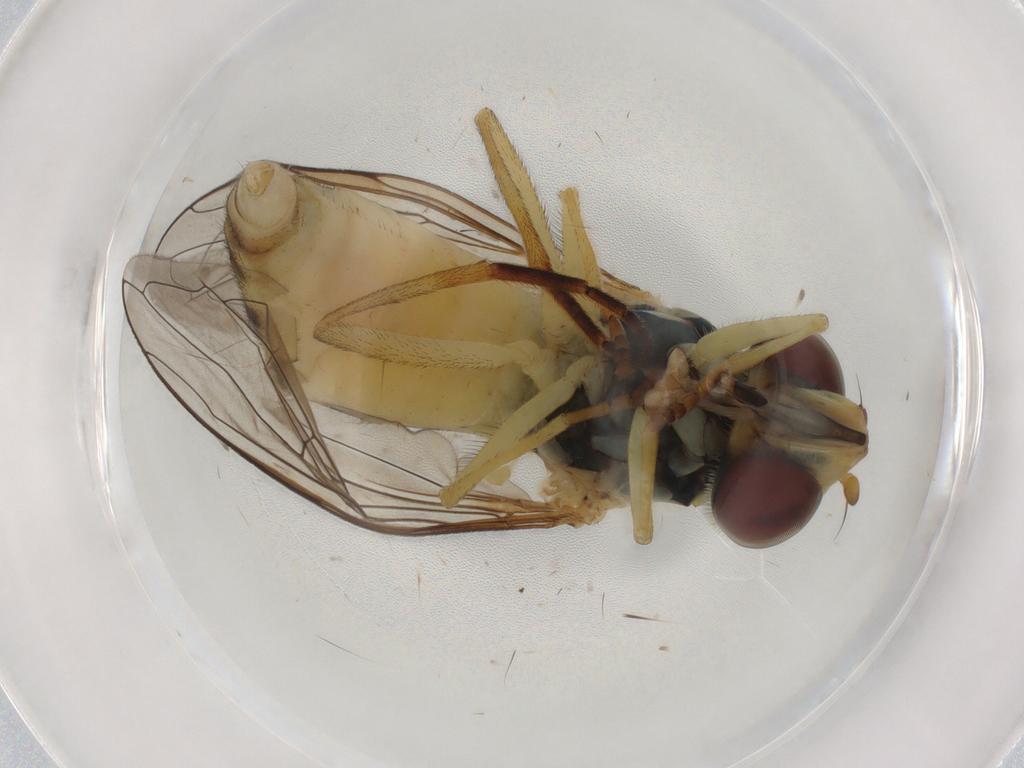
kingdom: Animalia
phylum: Arthropoda
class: Insecta
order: Diptera
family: Syrphidae
